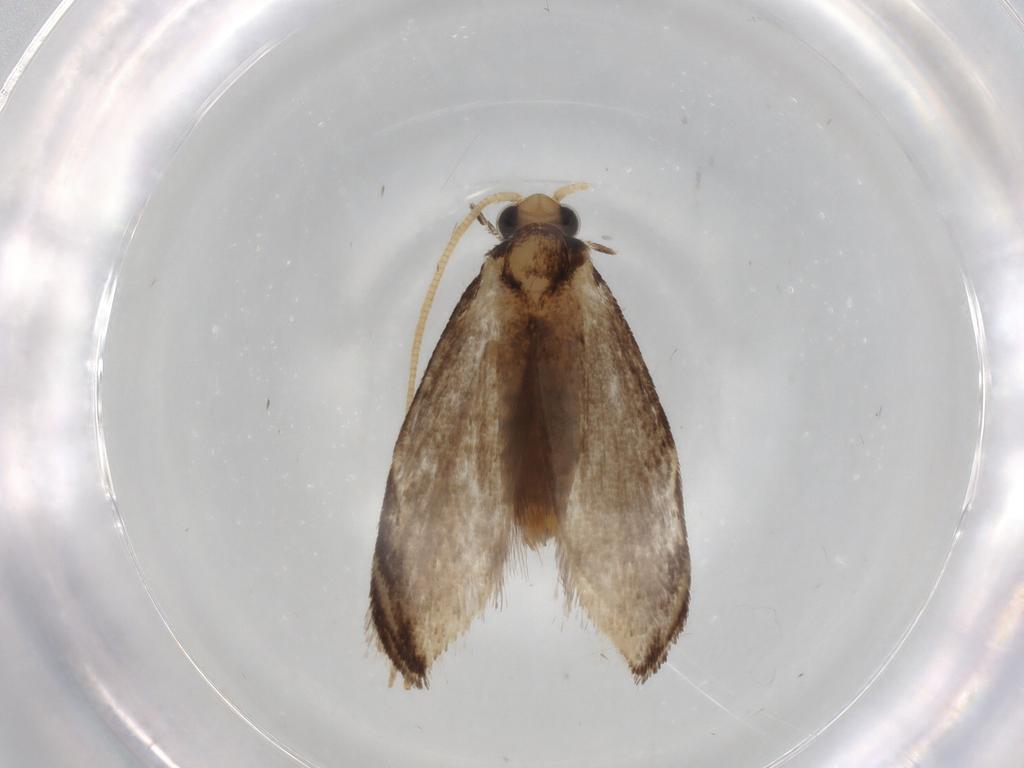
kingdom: Animalia
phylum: Arthropoda
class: Insecta
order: Lepidoptera
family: Tineidae
